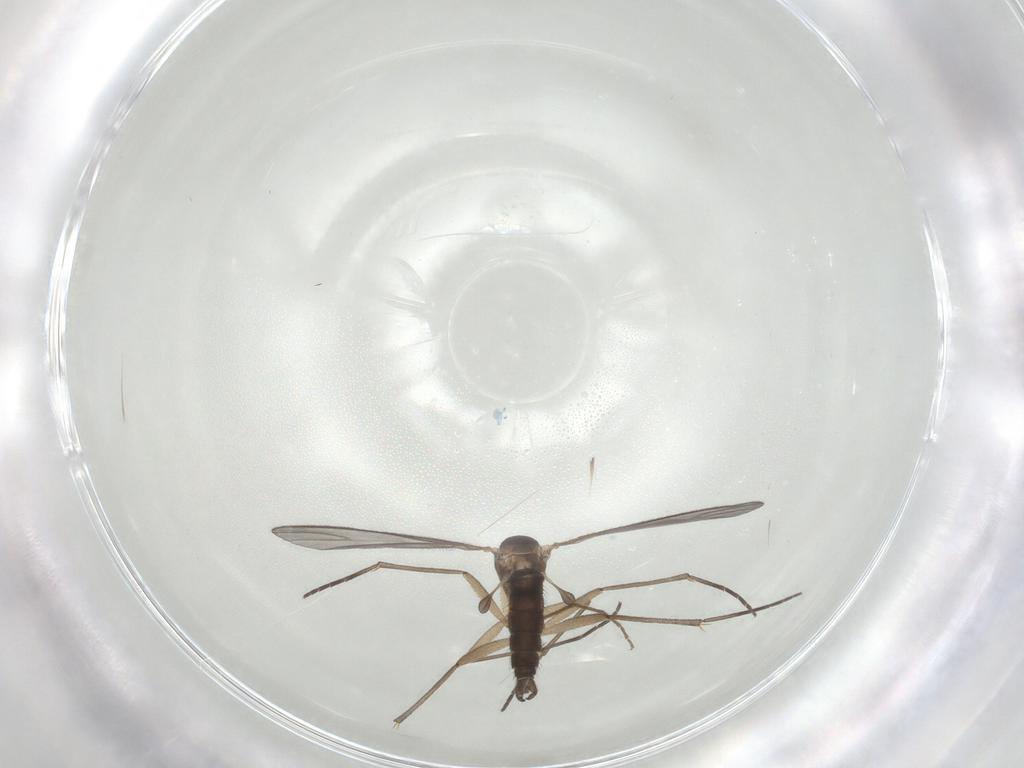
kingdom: Animalia
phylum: Arthropoda
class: Insecta
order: Diptera
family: Sciaridae
